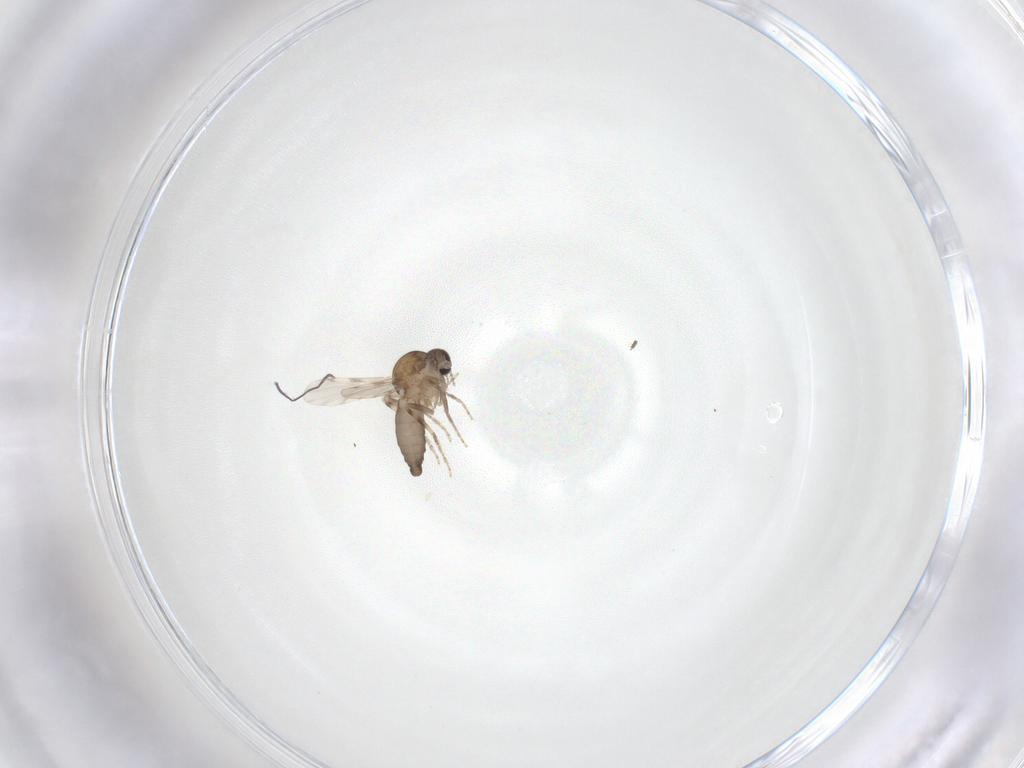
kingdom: Animalia
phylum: Arthropoda
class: Insecta
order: Diptera
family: Ceratopogonidae
